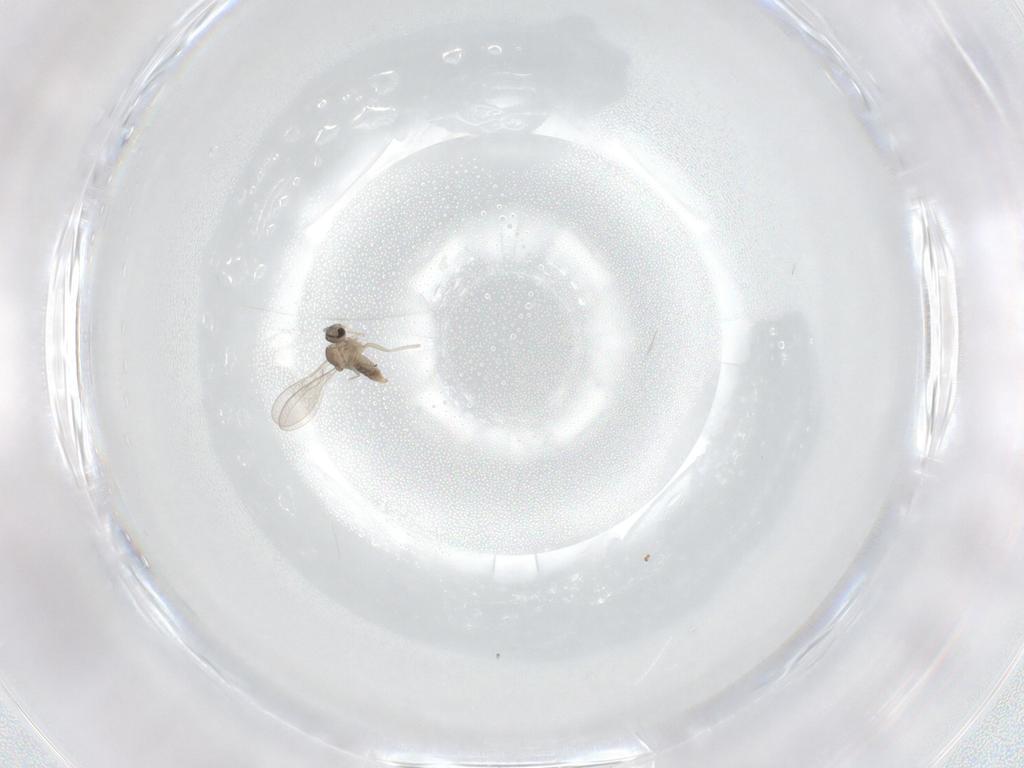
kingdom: Animalia
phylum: Arthropoda
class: Insecta
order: Diptera
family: Cecidomyiidae
